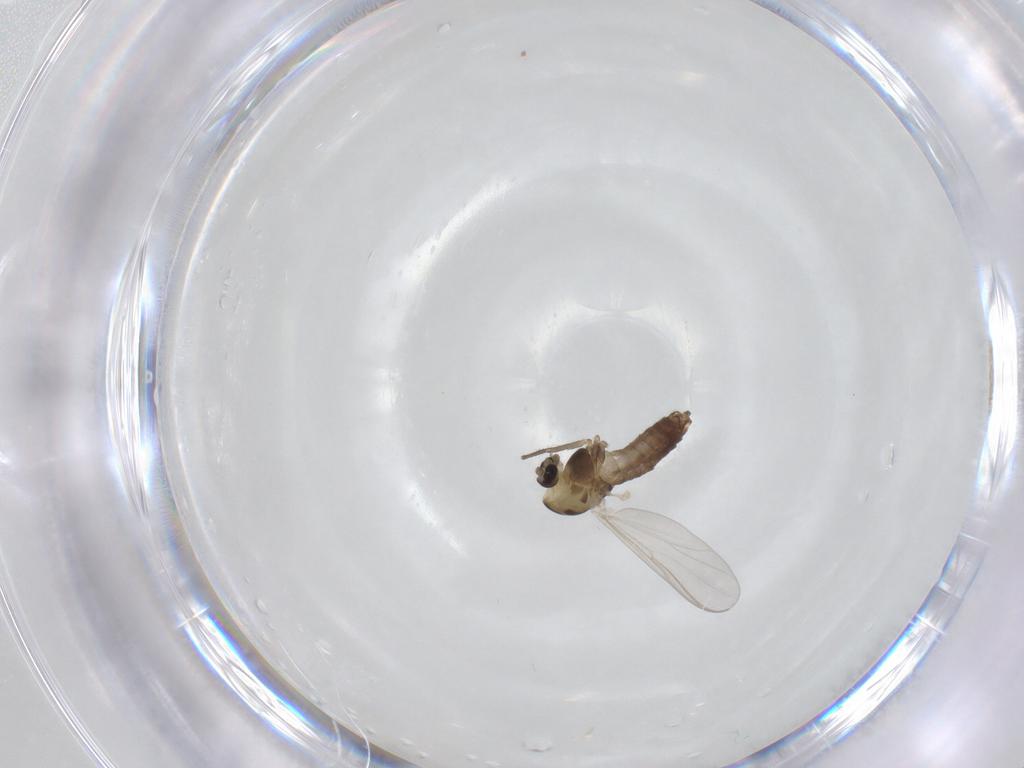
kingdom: Animalia
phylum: Arthropoda
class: Insecta
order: Diptera
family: Chironomidae
